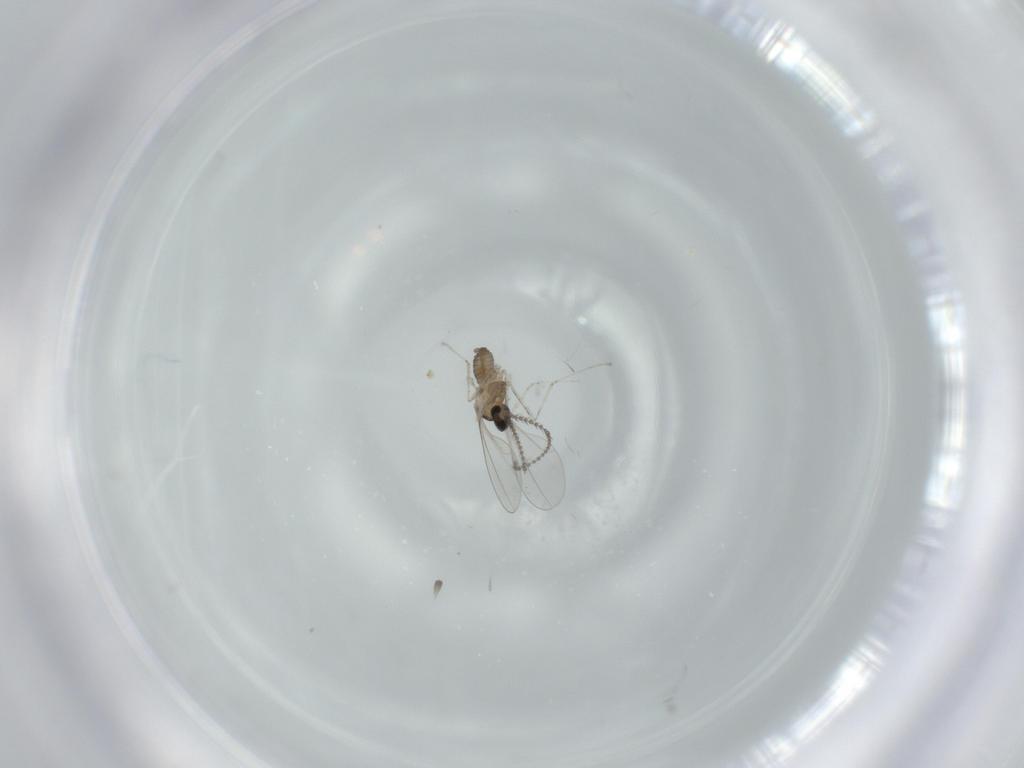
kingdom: Animalia
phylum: Arthropoda
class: Insecta
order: Diptera
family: Cecidomyiidae
